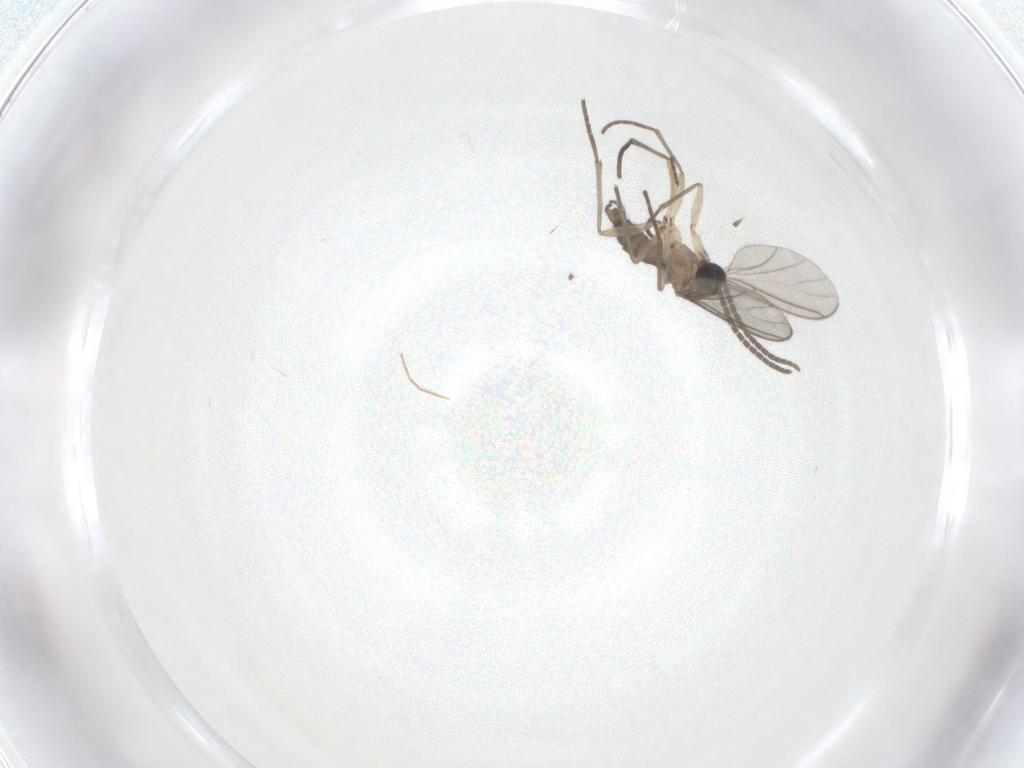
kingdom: Animalia
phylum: Arthropoda
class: Insecta
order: Diptera
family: Sciaridae
